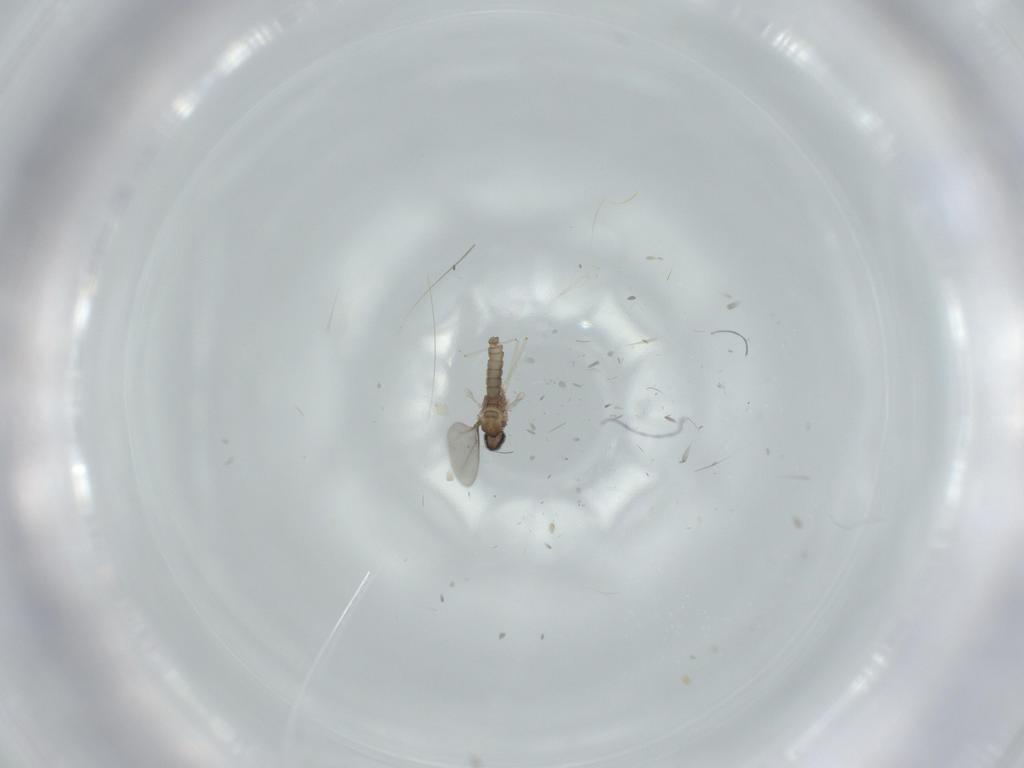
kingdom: Animalia
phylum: Arthropoda
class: Insecta
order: Diptera
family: Cecidomyiidae
